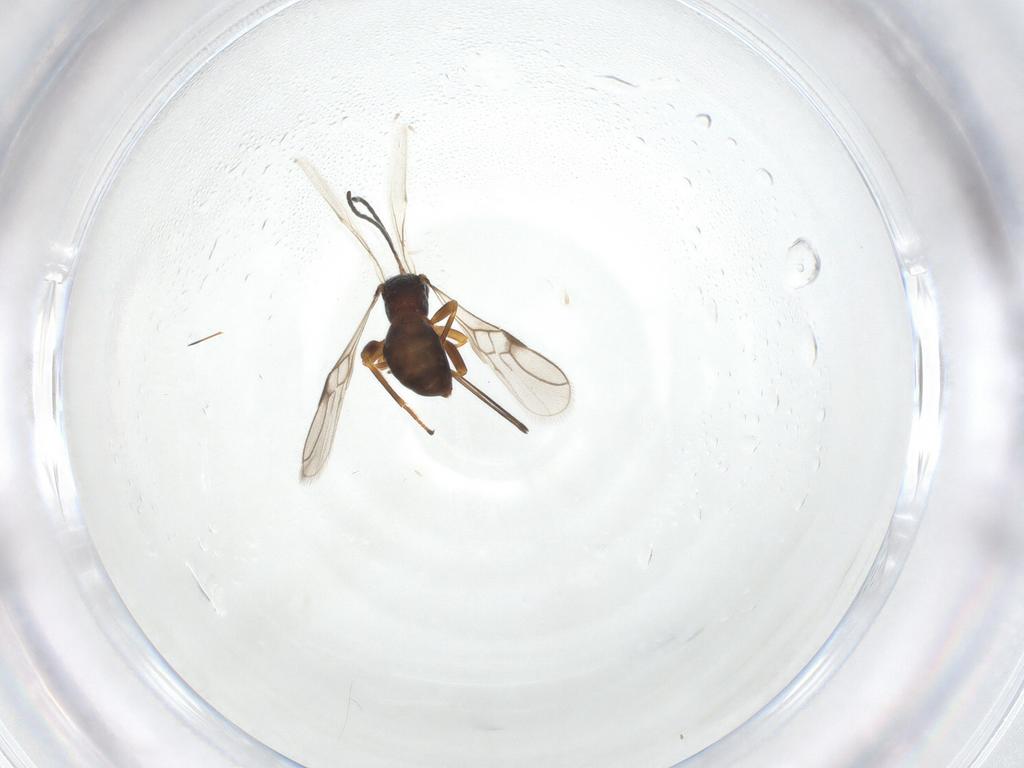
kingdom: Animalia
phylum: Arthropoda
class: Insecta
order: Hymenoptera
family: Braconidae
